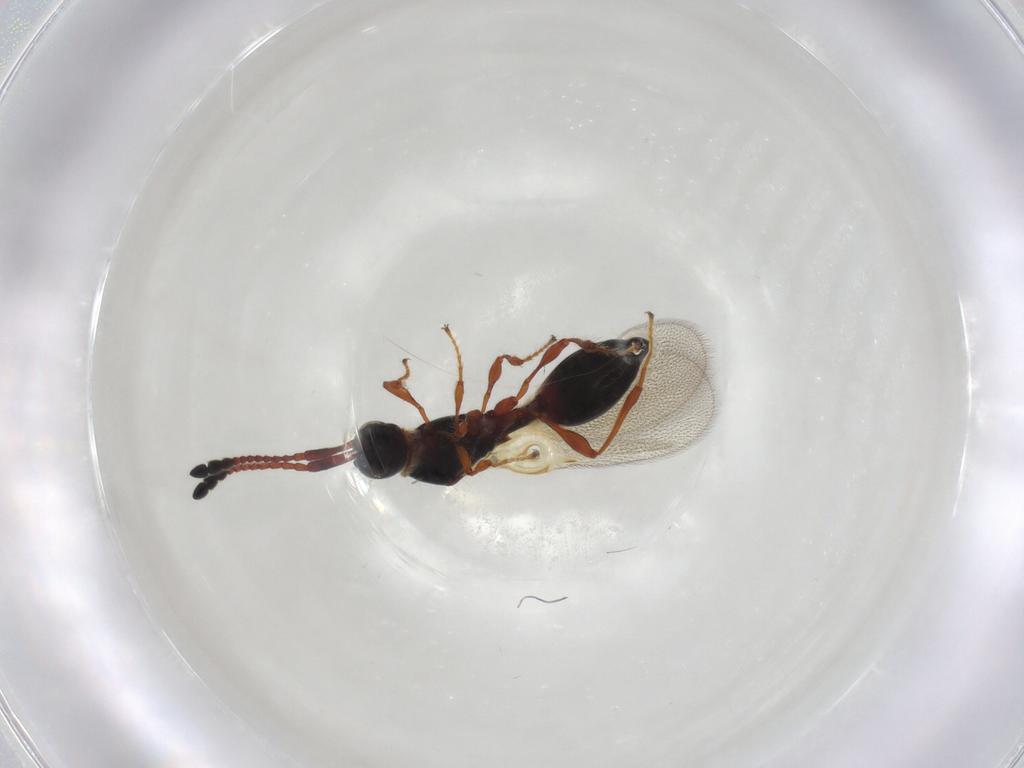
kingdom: Animalia
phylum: Arthropoda
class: Insecta
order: Hymenoptera
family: Diapriidae
